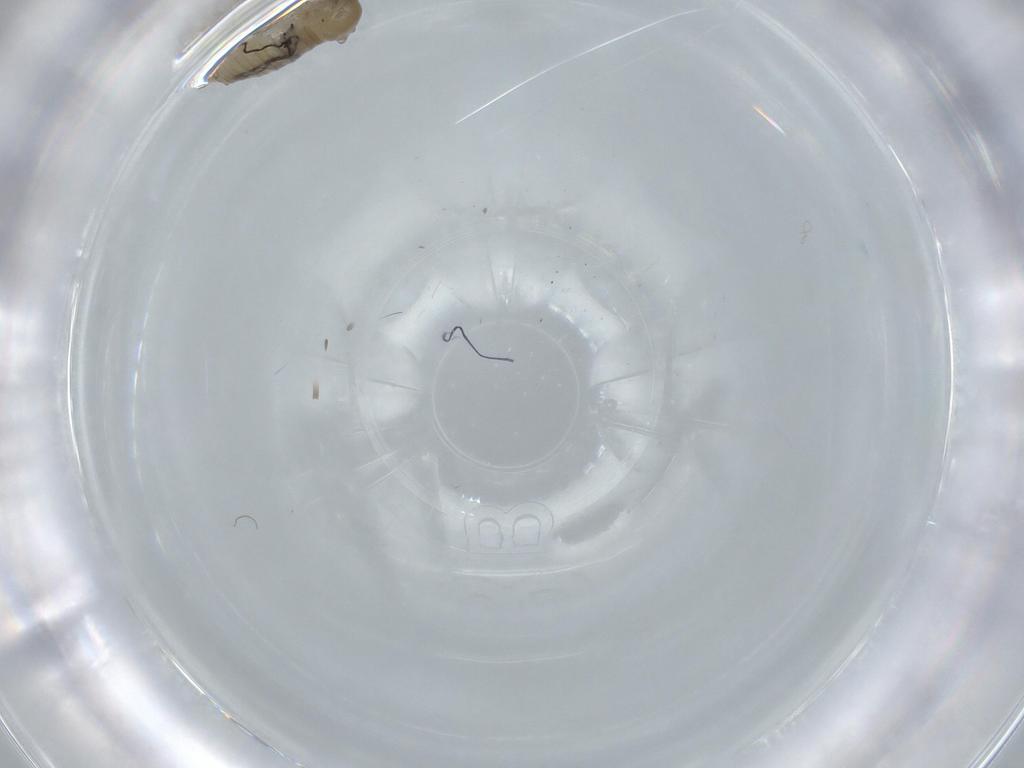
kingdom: Animalia
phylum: Arthropoda
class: Insecta
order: Diptera
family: Psychodidae
